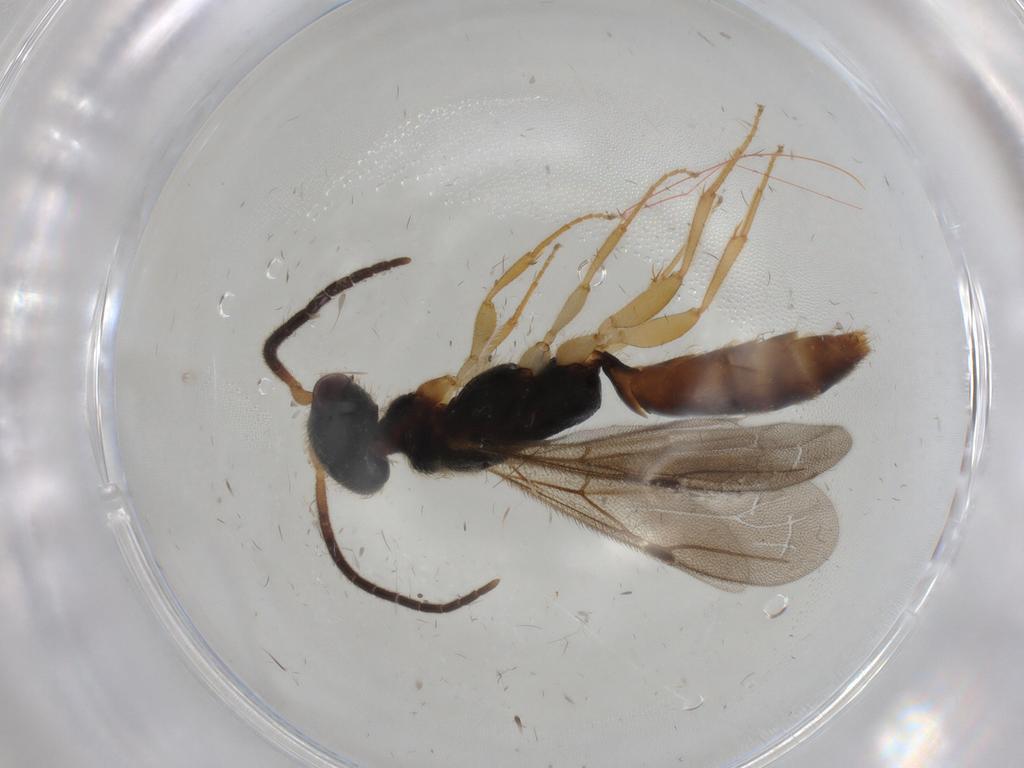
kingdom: Animalia
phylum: Arthropoda
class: Insecta
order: Hymenoptera
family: Bethylidae
